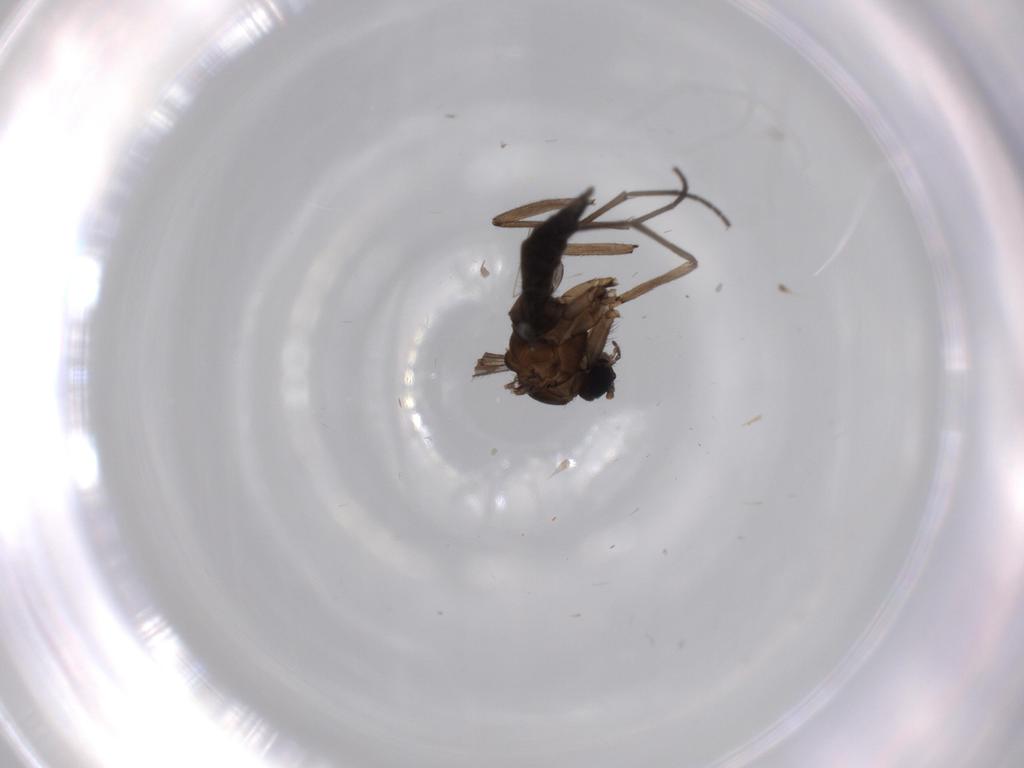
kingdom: Animalia
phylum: Arthropoda
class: Insecta
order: Diptera
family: Sciaridae
